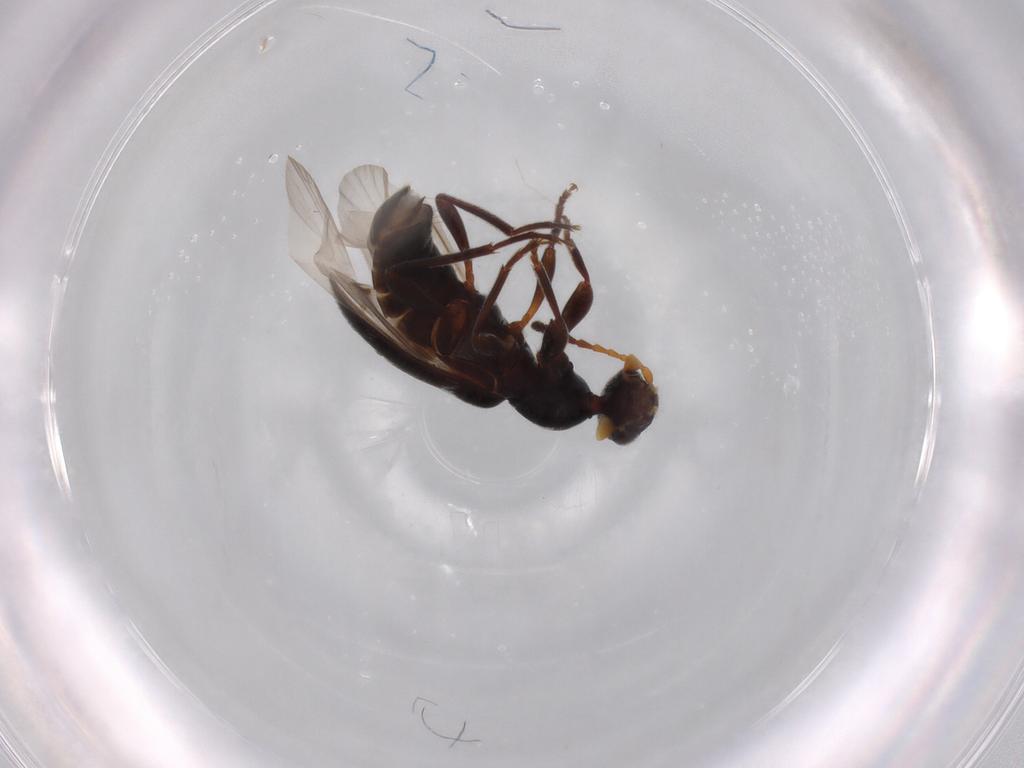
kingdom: Animalia
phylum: Arthropoda
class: Insecta
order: Coleoptera
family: Anthicidae
